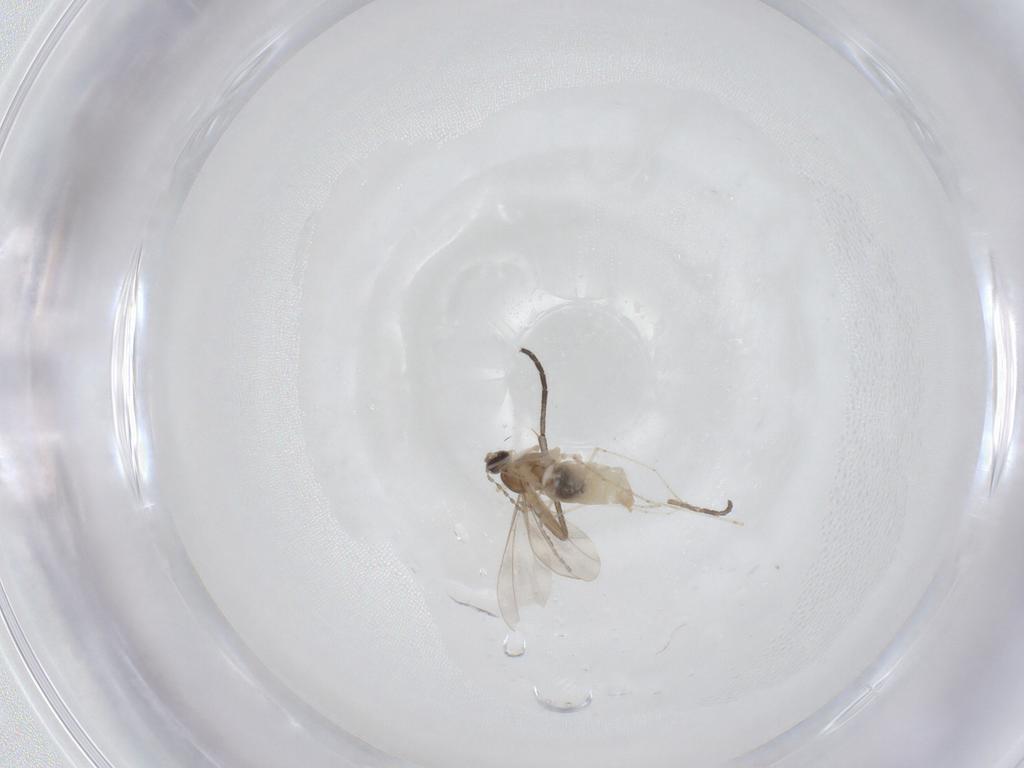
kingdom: Animalia
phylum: Arthropoda
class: Insecta
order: Diptera
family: Cecidomyiidae
